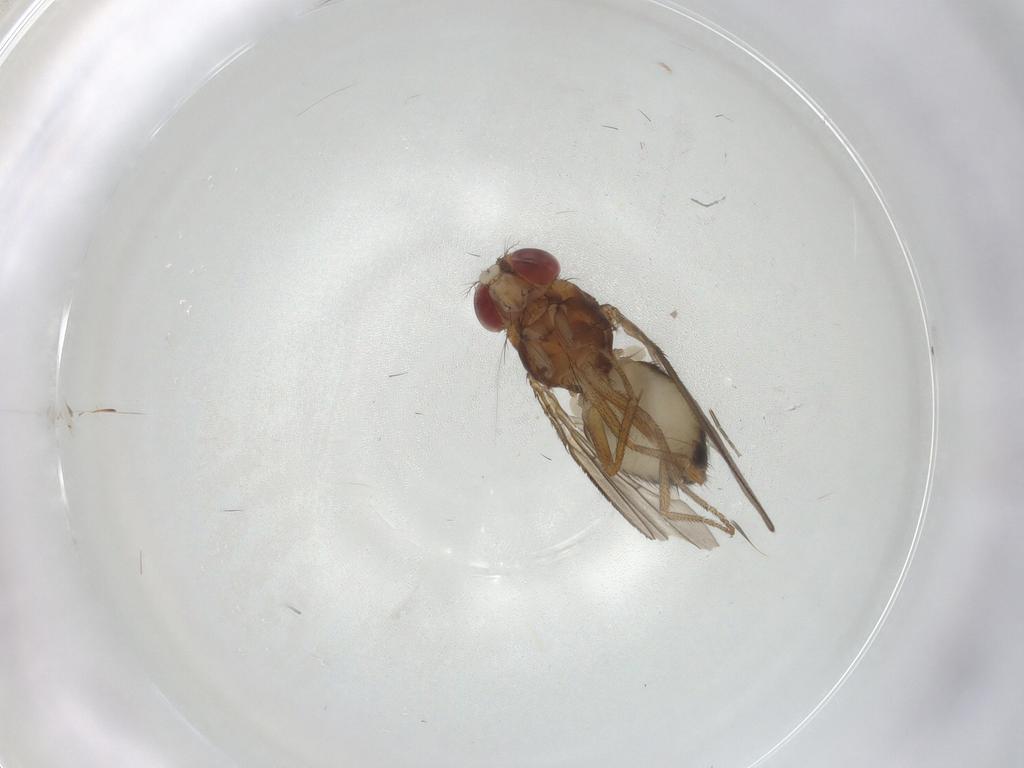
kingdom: Animalia
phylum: Arthropoda
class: Insecta
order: Diptera
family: Drosophilidae
